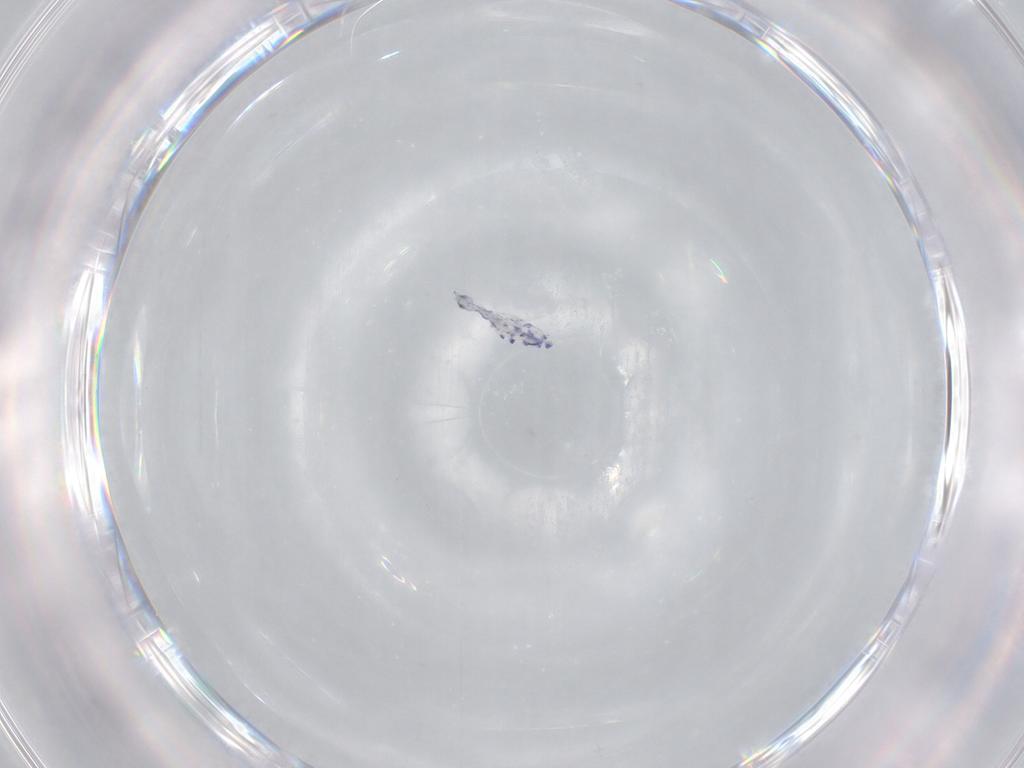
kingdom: Animalia
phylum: Arthropoda
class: Collembola
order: Entomobryomorpha
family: Entomobryidae
